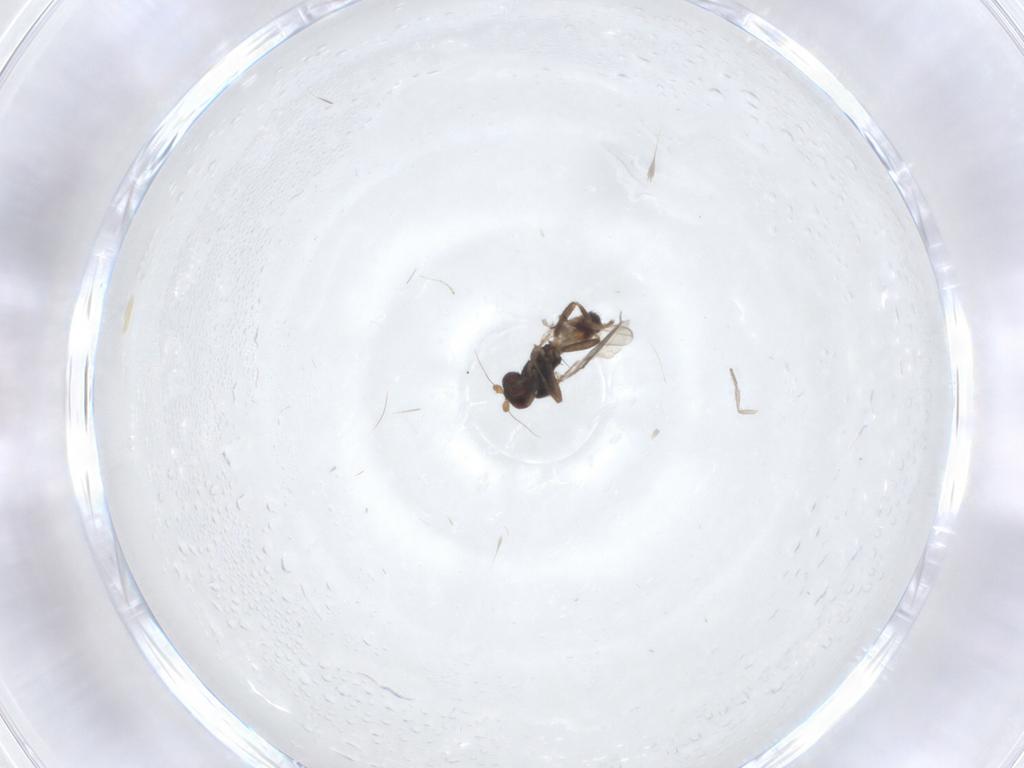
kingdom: Animalia
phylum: Arthropoda
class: Insecta
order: Diptera
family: Sphaeroceridae
